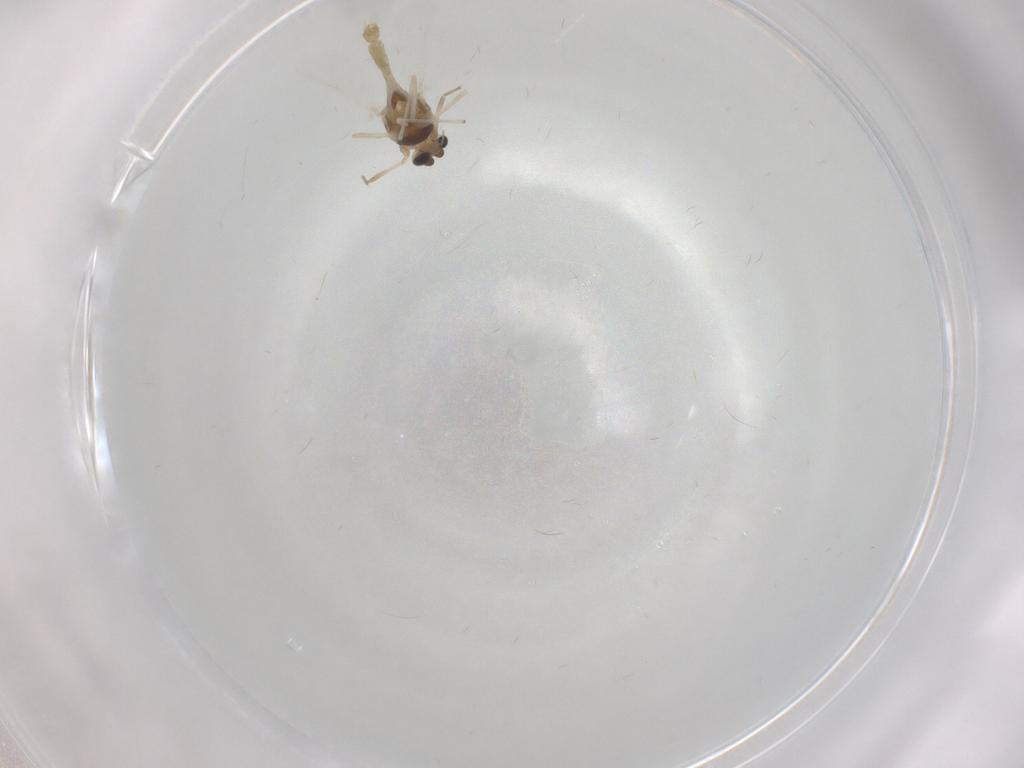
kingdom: Animalia
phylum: Arthropoda
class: Insecta
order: Diptera
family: Chironomidae
